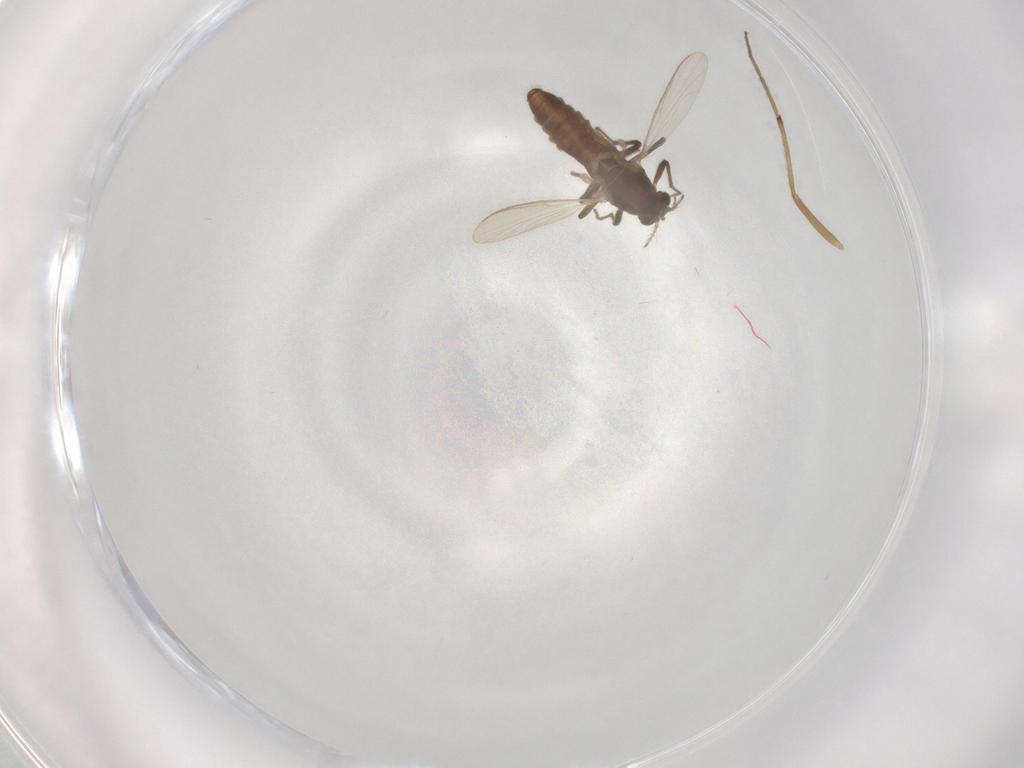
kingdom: Animalia
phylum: Arthropoda
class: Insecta
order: Diptera
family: Chironomidae
